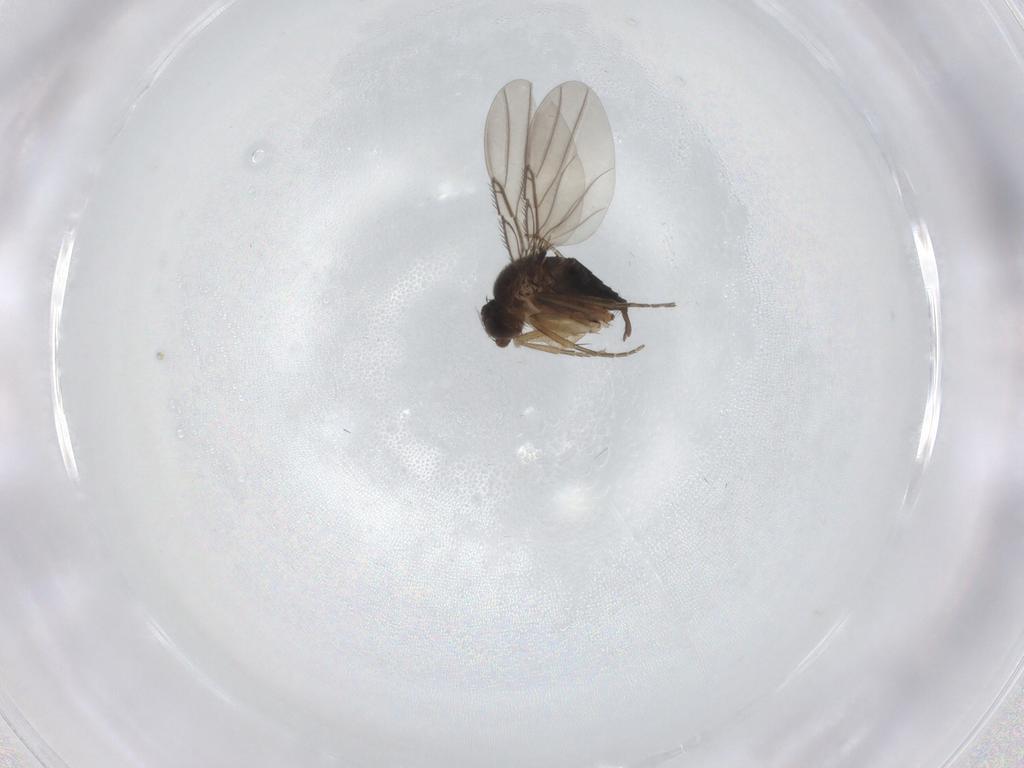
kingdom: Animalia
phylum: Arthropoda
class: Insecta
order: Diptera
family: Phoridae
